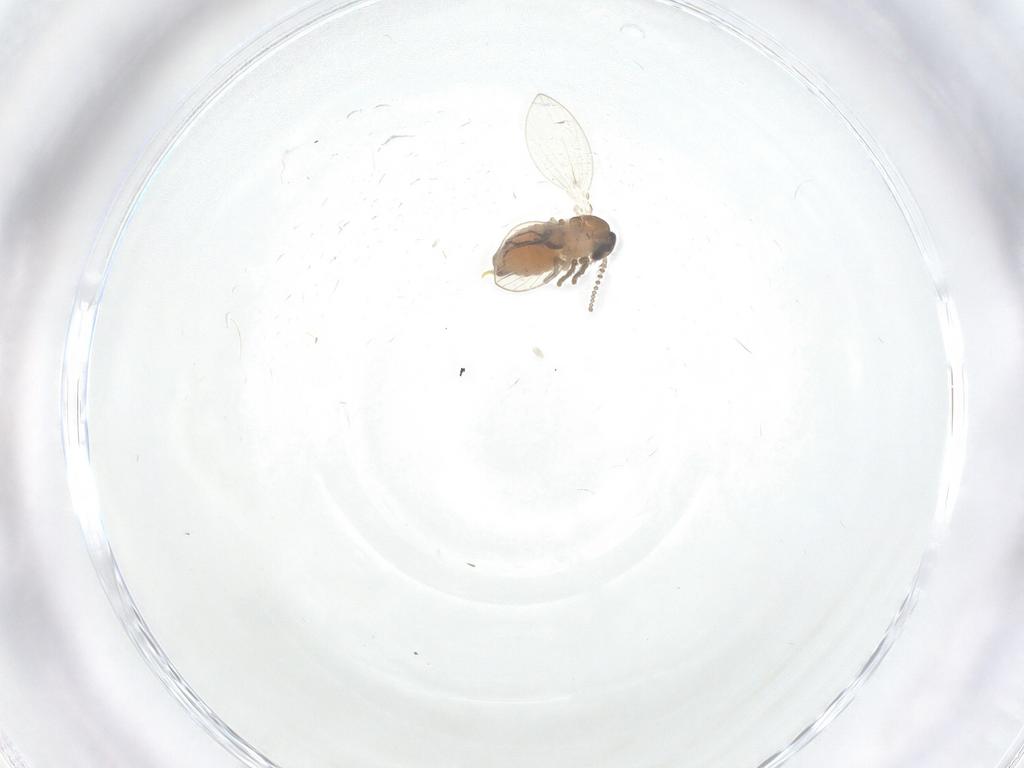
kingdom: Animalia
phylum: Arthropoda
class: Insecta
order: Diptera
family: Psychodidae
